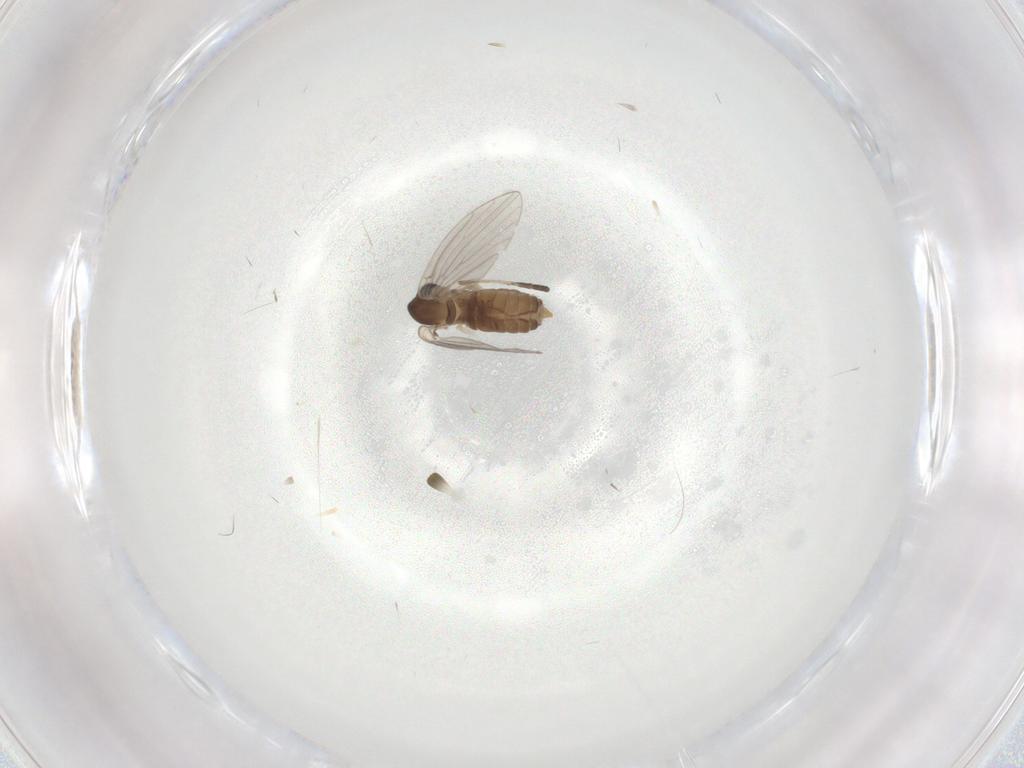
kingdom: Animalia
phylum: Arthropoda
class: Insecta
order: Diptera
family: Psychodidae
